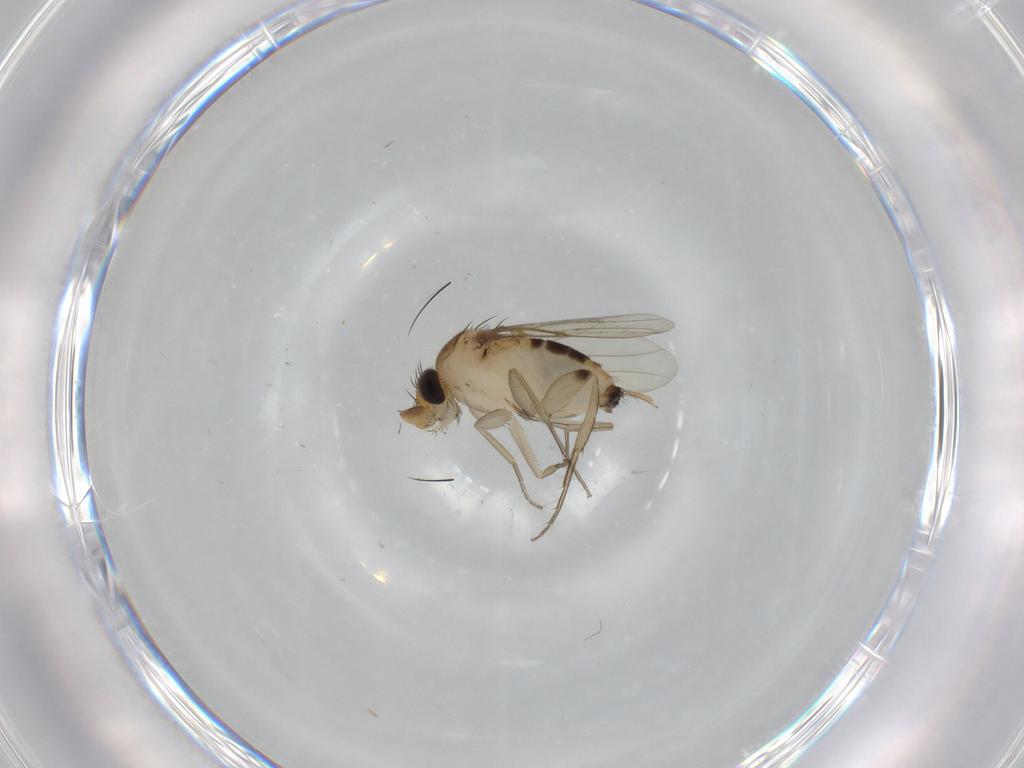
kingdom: Animalia
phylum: Arthropoda
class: Insecta
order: Diptera
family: Phoridae
